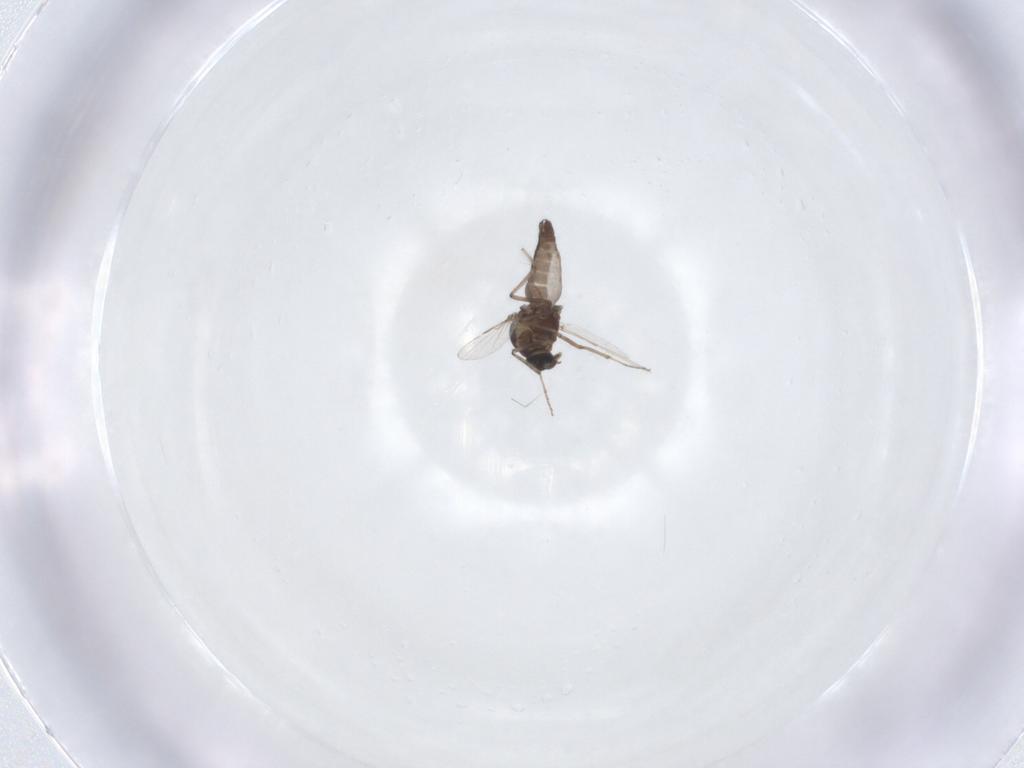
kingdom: Animalia
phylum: Arthropoda
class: Insecta
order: Diptera
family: Ceratopogonidae
